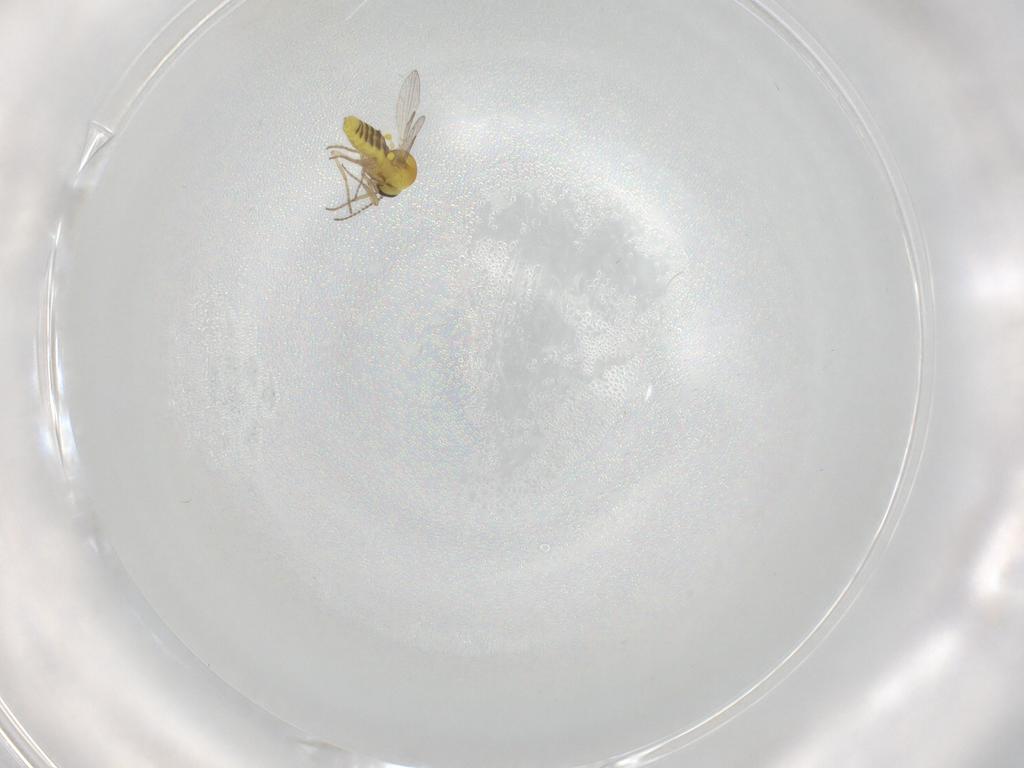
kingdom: Animalia
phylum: Arthropoda
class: Insecta
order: Diptera
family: Ceratopogonidae
